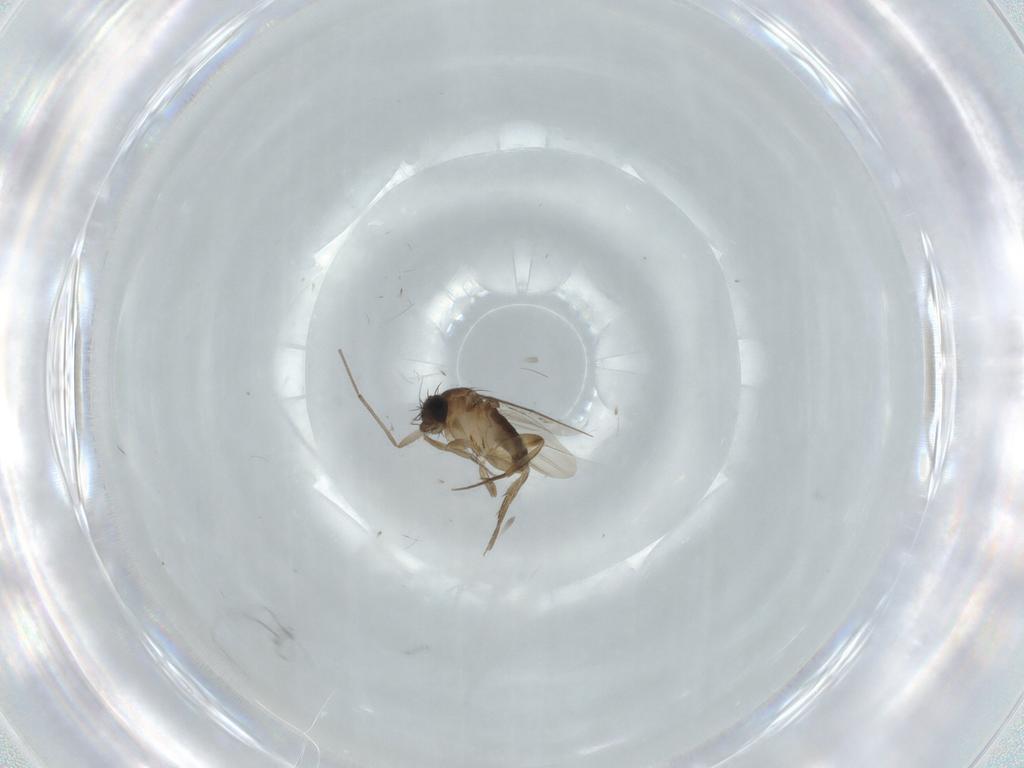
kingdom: Animalia
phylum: Arthropoda
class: Insecta
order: Diptera
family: Phoridae
